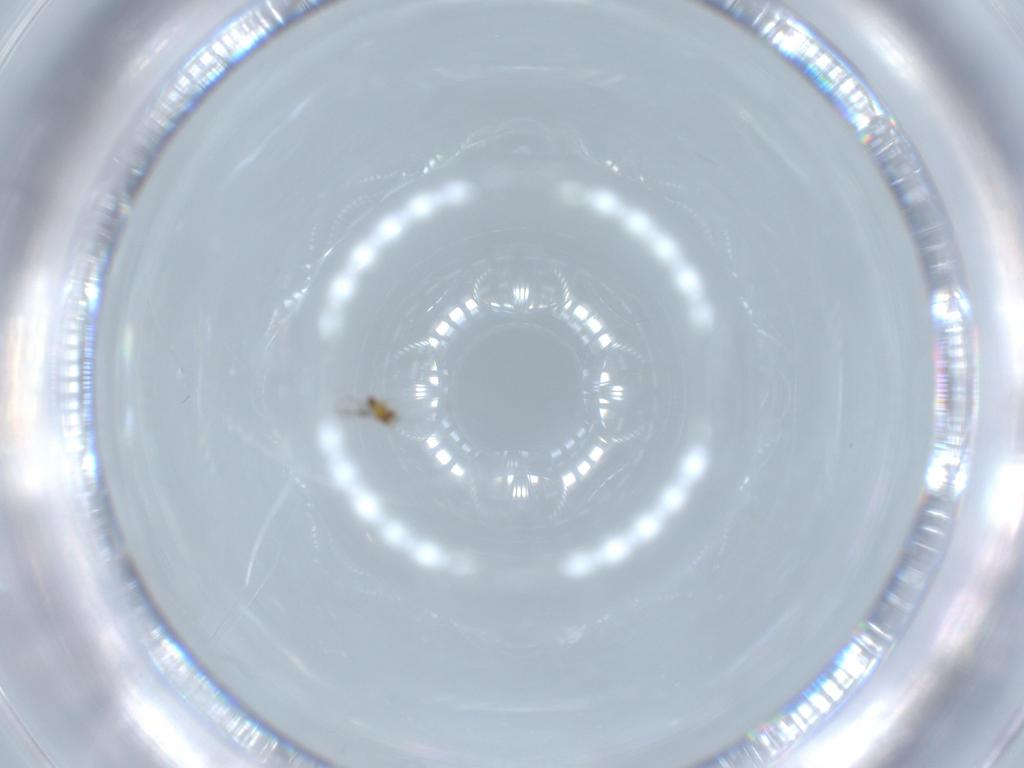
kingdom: Animalia
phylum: Arthropoda
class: Insecta
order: Hymenoptera
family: Trichogrammatidae
